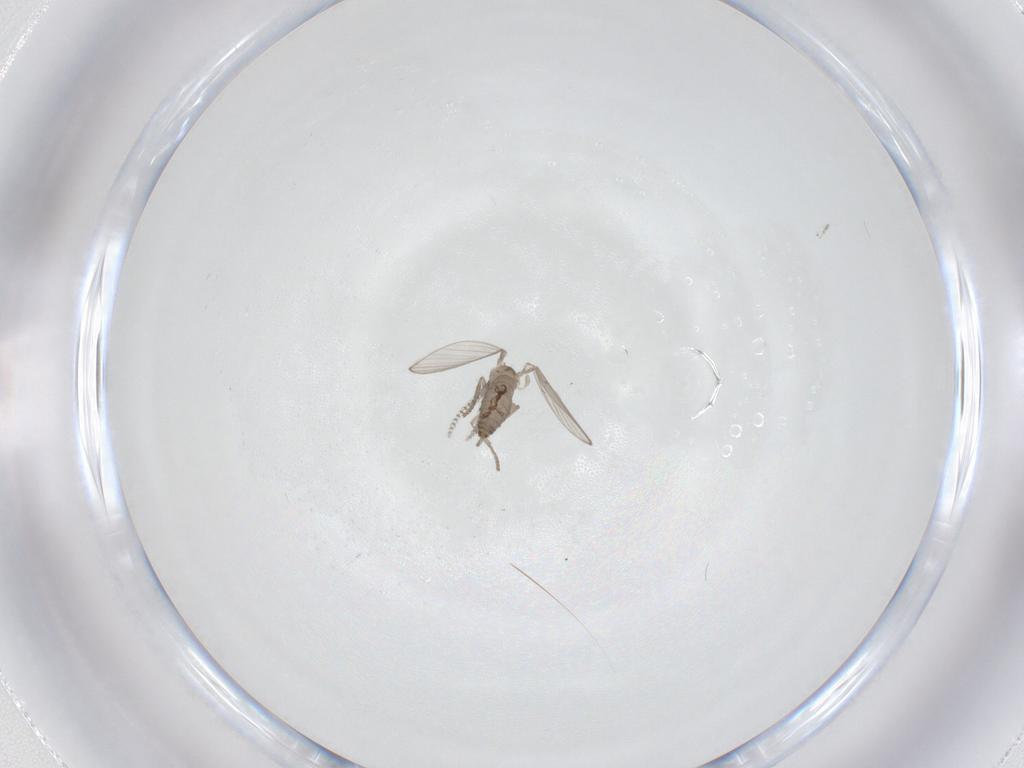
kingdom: Animalia
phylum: Arthropoda
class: Insecta
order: Diptera
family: Psychodidae
